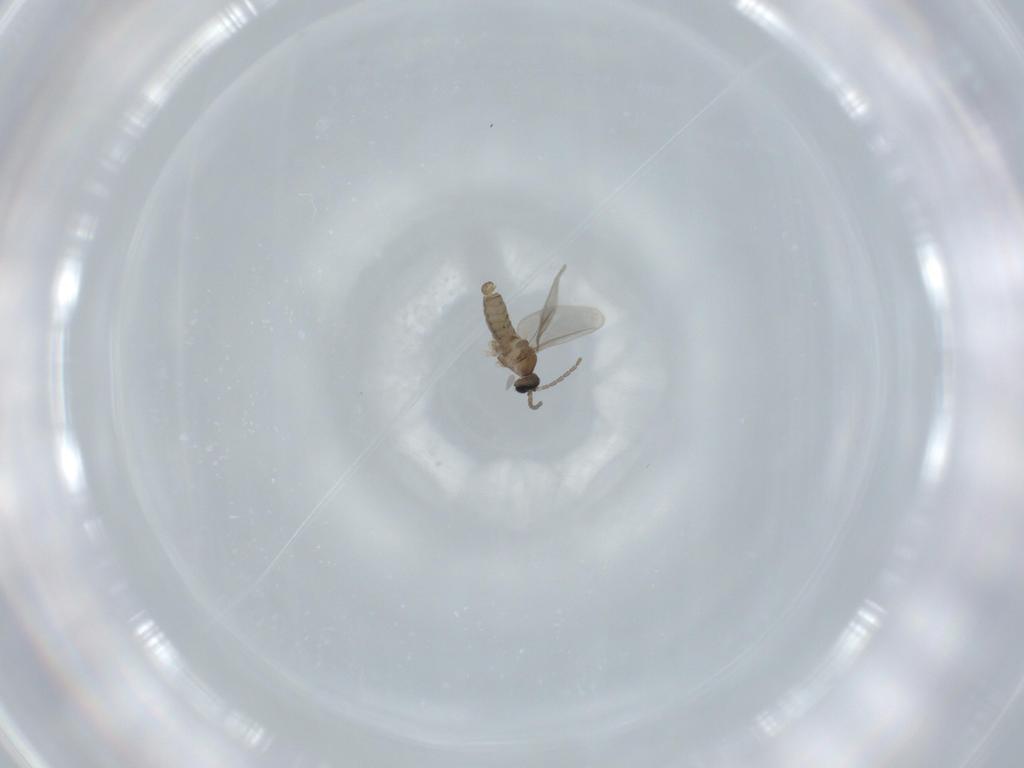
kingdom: Animalia
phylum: Arthropoda
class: Insecta
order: Diptera
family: Cecidomyiidae
